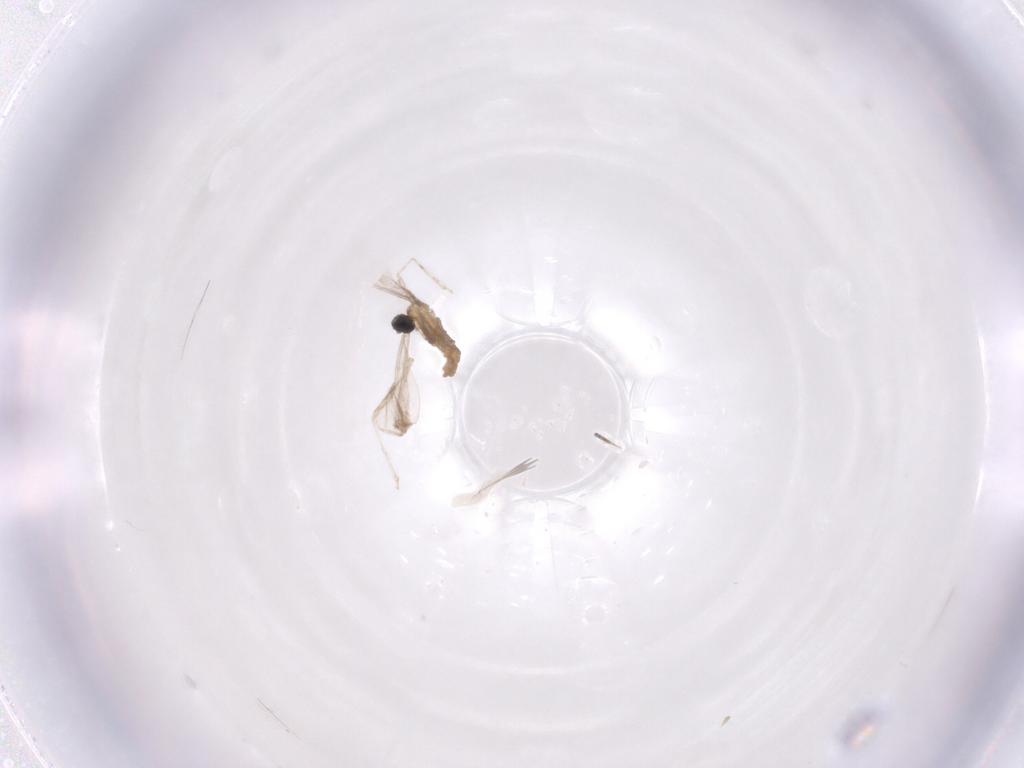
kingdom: Animalia
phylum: Arthropoda
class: Insecta
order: Diptera
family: Cecidomyiidae
